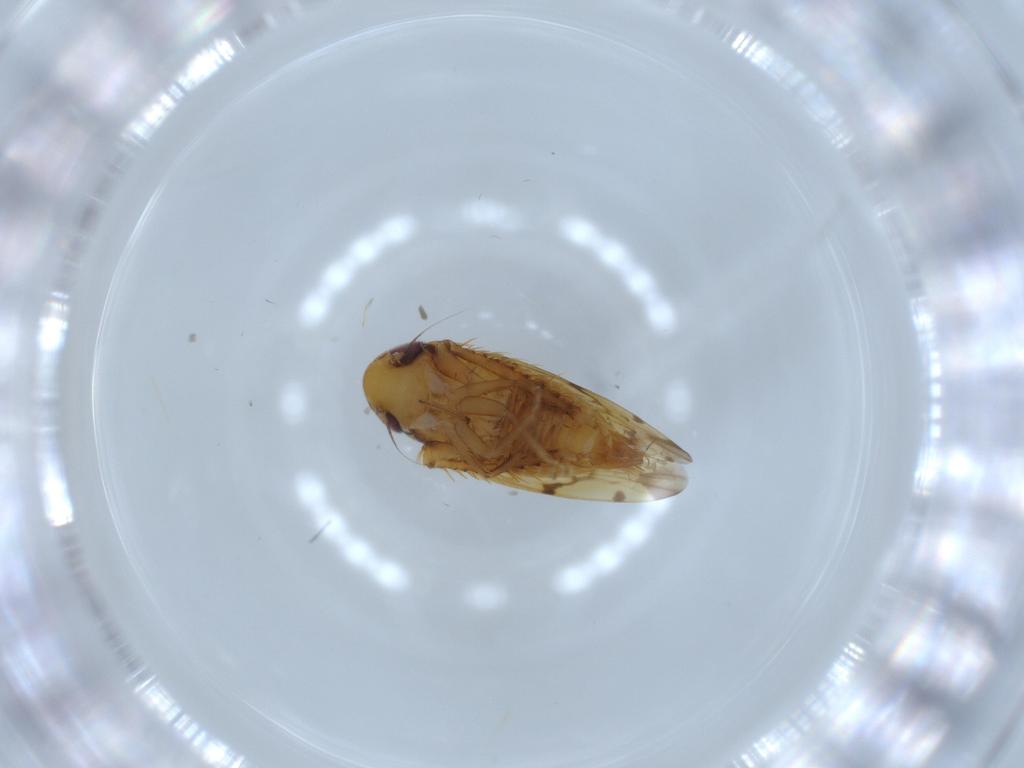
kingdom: Animalia
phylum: Arthropoda
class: Insecta
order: Hemiptera
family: Cicadellidae
